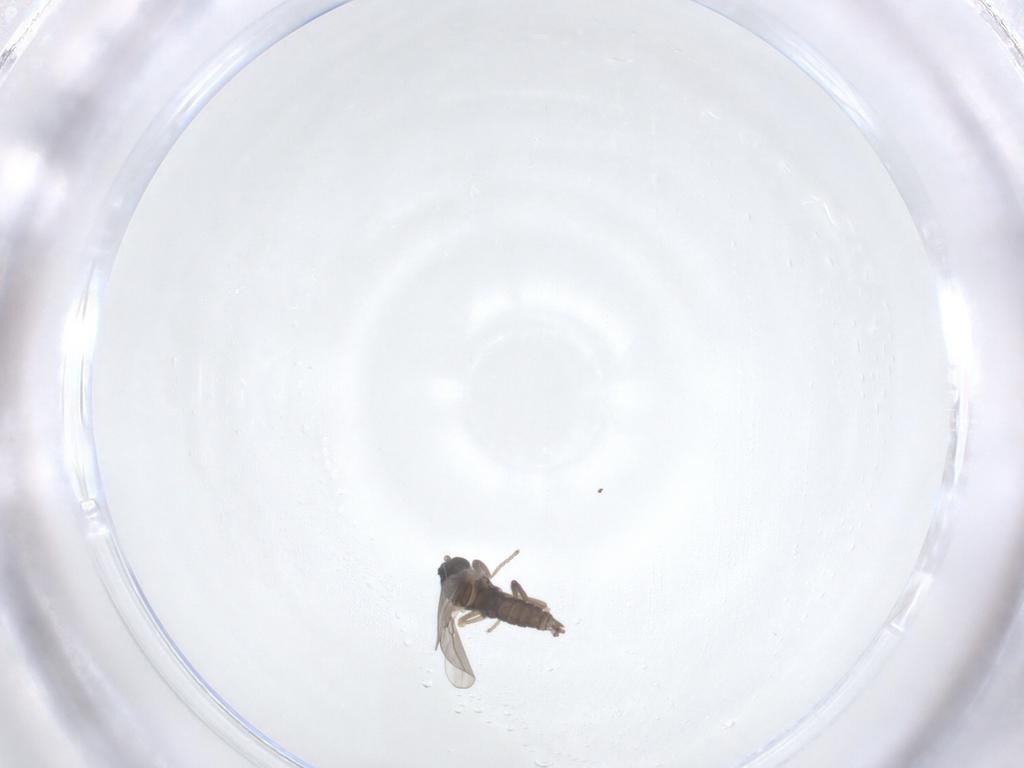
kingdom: Animalia
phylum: Arthropoda
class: Insecta
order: Diptera
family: Cecidomyiidae
